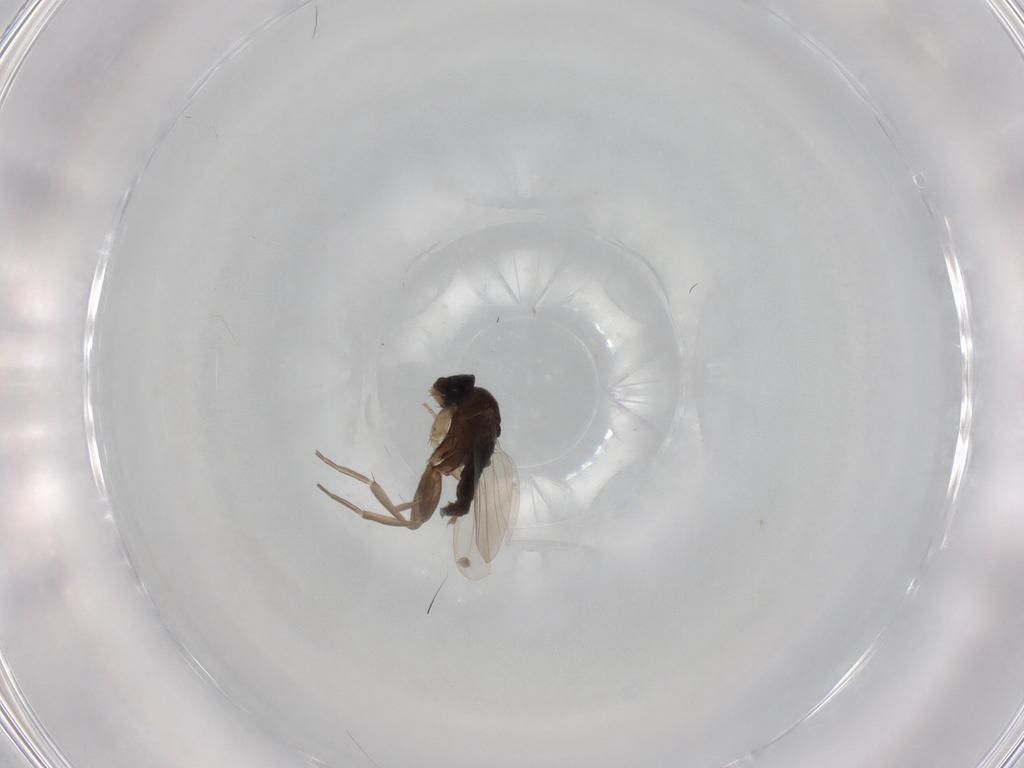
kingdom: Animalia
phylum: Arthropoda
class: Insecta
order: Diptera
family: Phoridae
